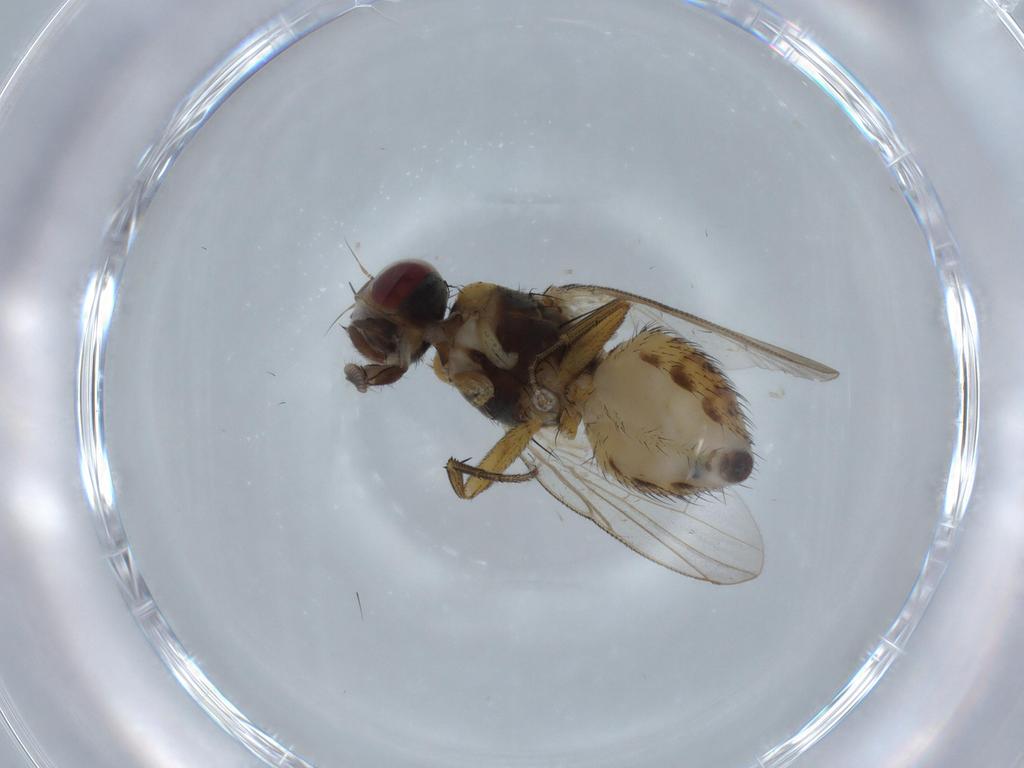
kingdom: Animalia
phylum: Arthropoda
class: Insecta
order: Diptera
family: Muscidae
